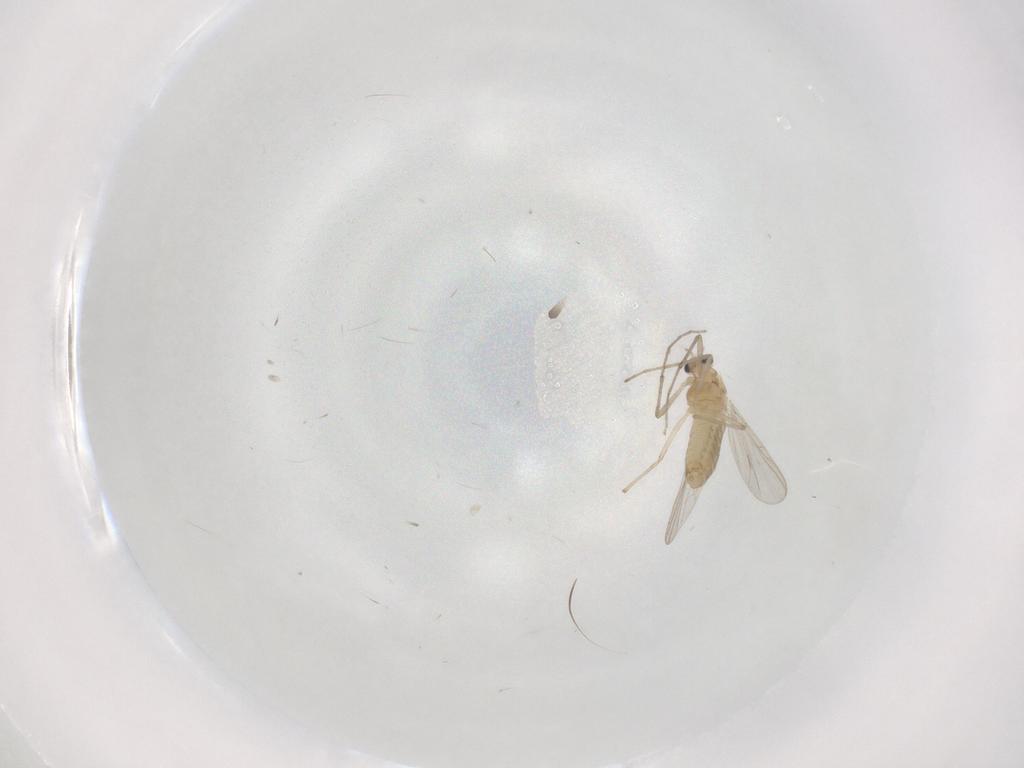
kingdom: Animalia
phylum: Arthropoda
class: Insecta
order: Diptera
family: Chironomidae
